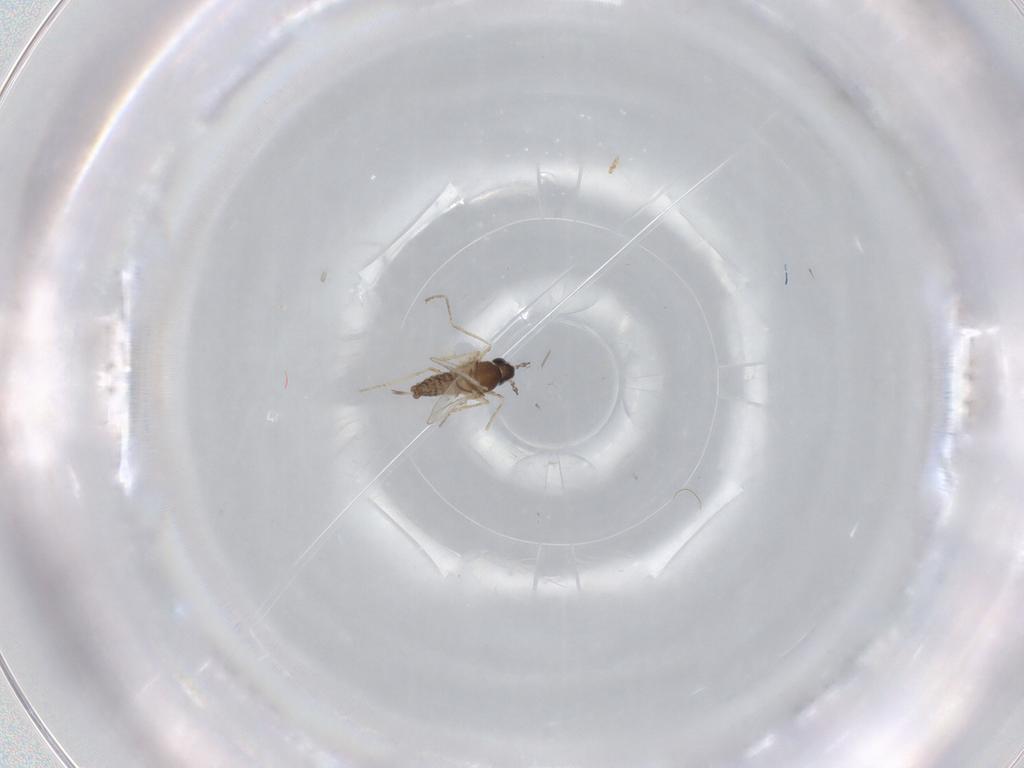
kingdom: Animalia
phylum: Arthropoda
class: Insecta
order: Diptera
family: Cecidomyiidae
